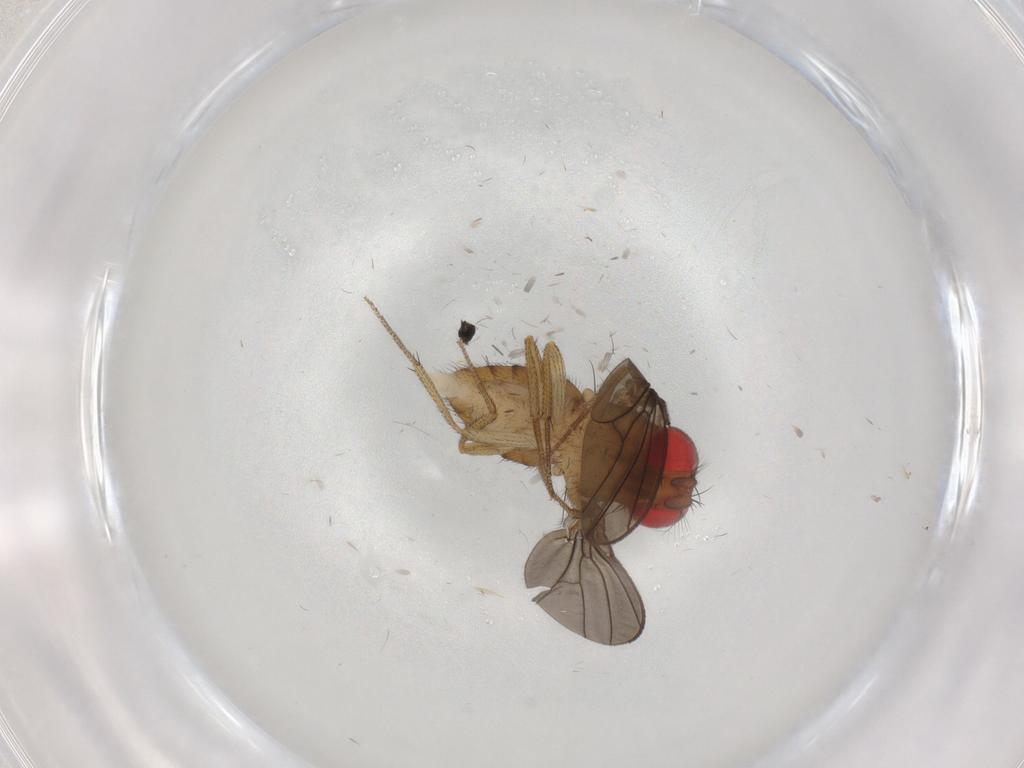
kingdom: Animalia
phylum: Arthropoda
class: Insecta
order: Diptera
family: Drosophilidae
